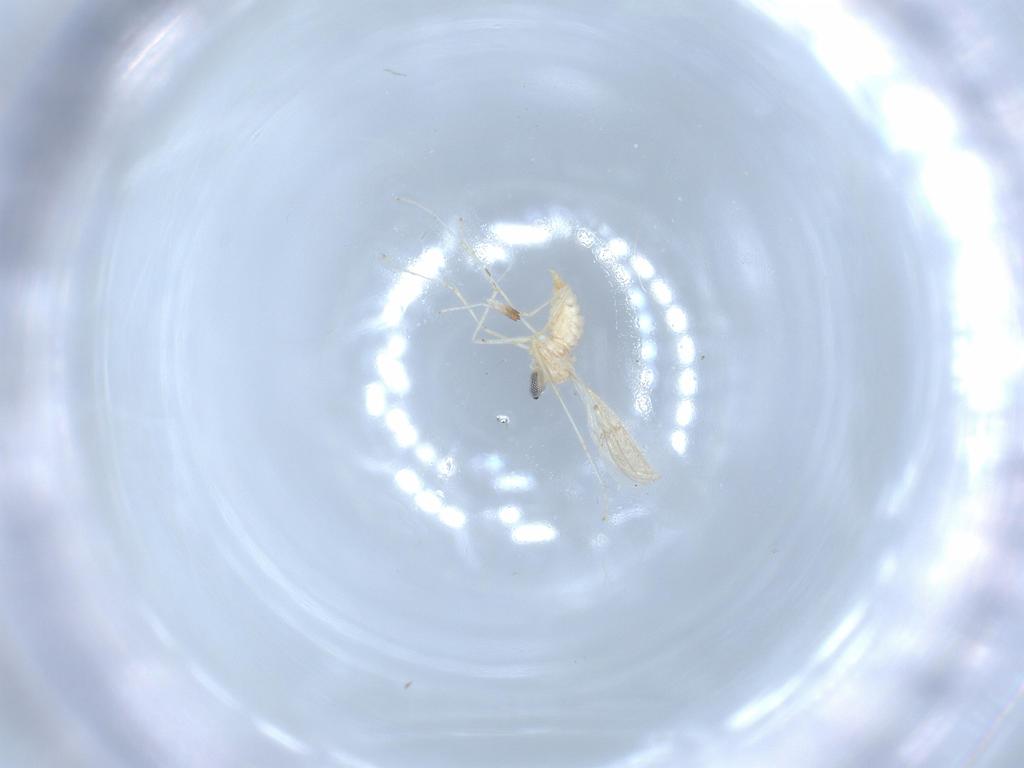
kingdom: Animalia
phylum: Arthropoda
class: Insecta
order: Diptera
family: Cecidomyiidae
